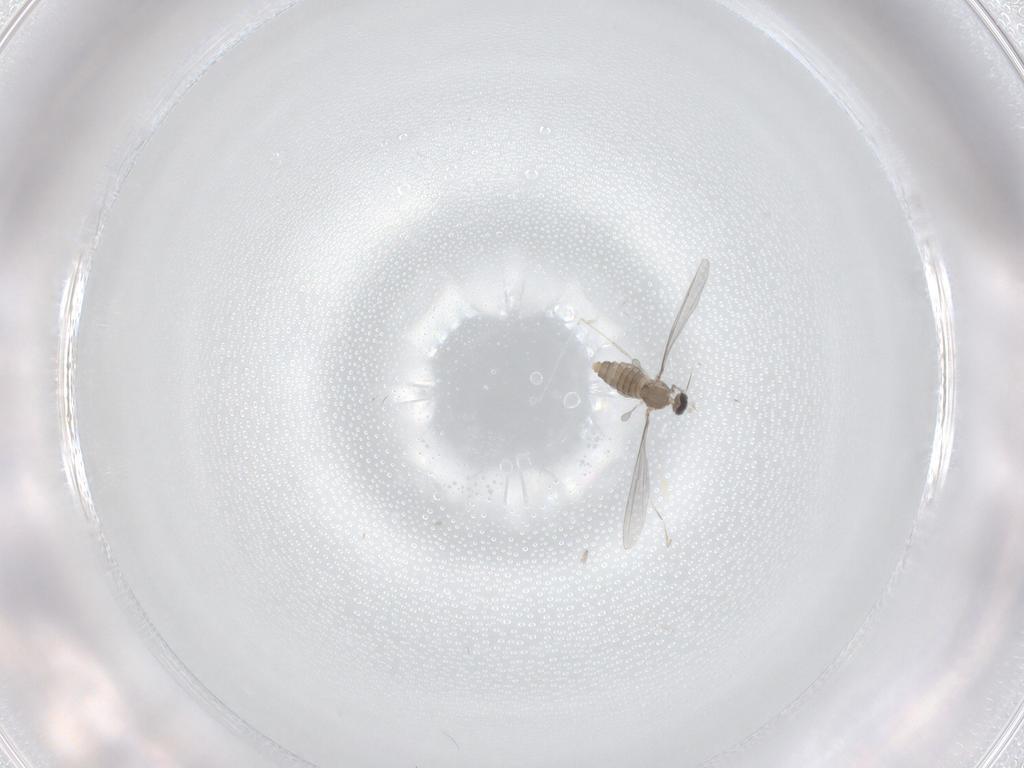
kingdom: Animalia
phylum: Arthropoda
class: Insecta
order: Diptera
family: Cecidomyiidae
